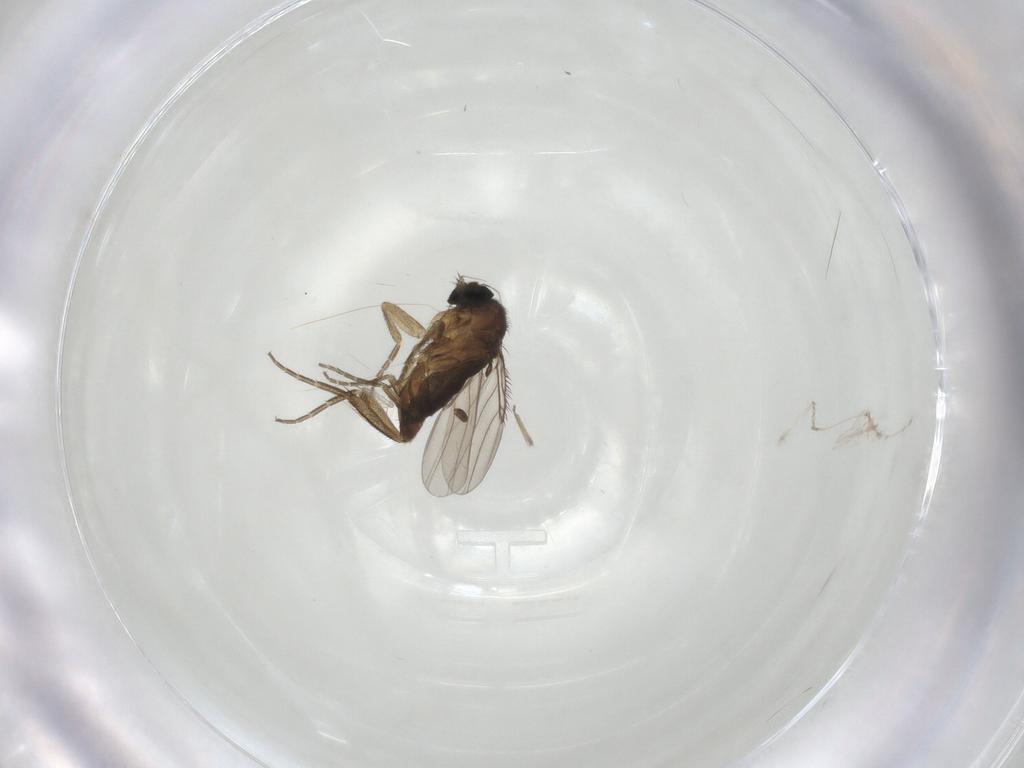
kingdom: Animalia
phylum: Arthropoda
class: Insecta
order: Diptera
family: Phoridae
